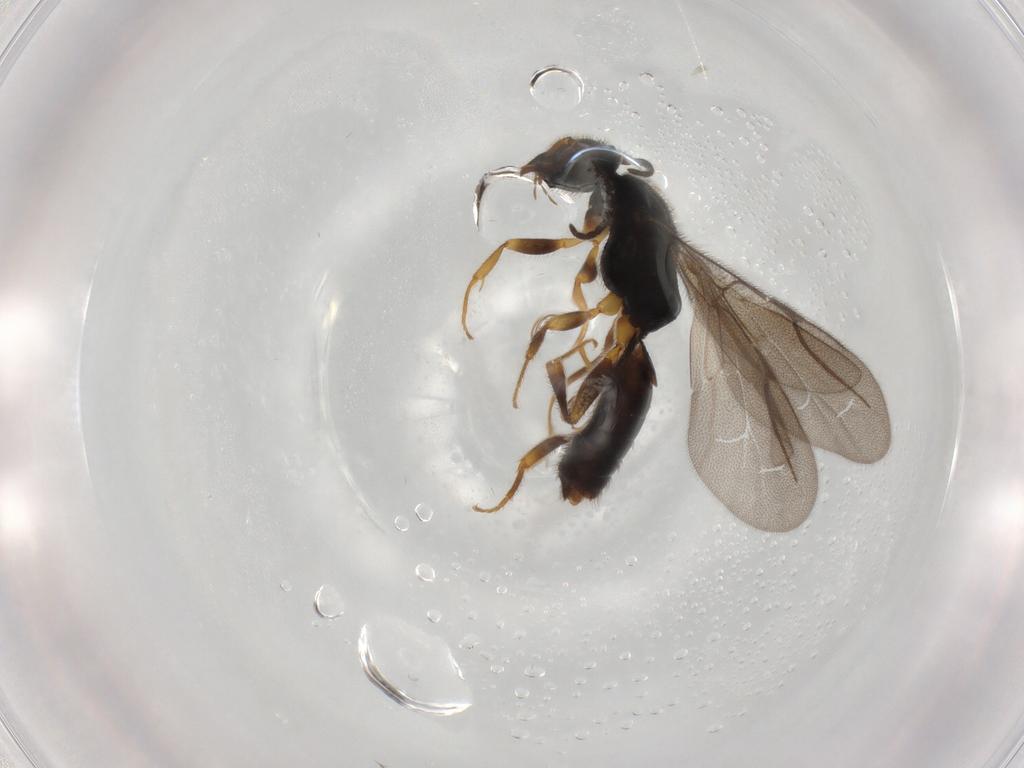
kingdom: Animalia
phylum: Arthropoda
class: Insecta
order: Hymenoptera
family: Bethylidae
